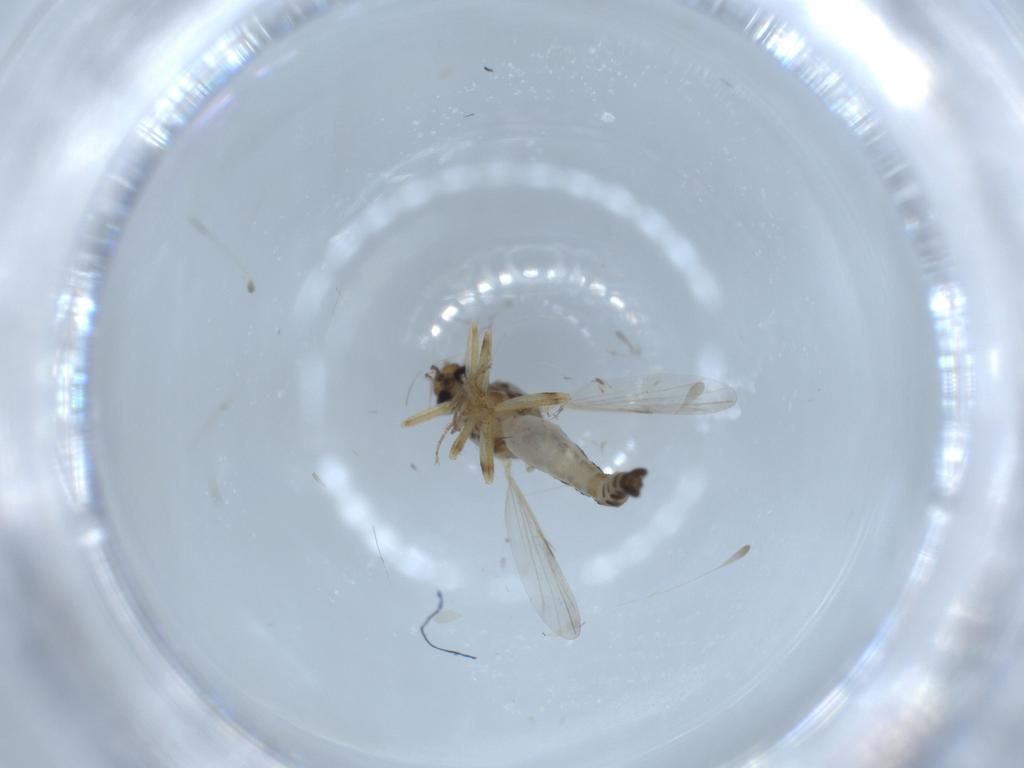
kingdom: Animalia
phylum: Arthropoda
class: Insecta
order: Diptera
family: Ceratopogonidae
